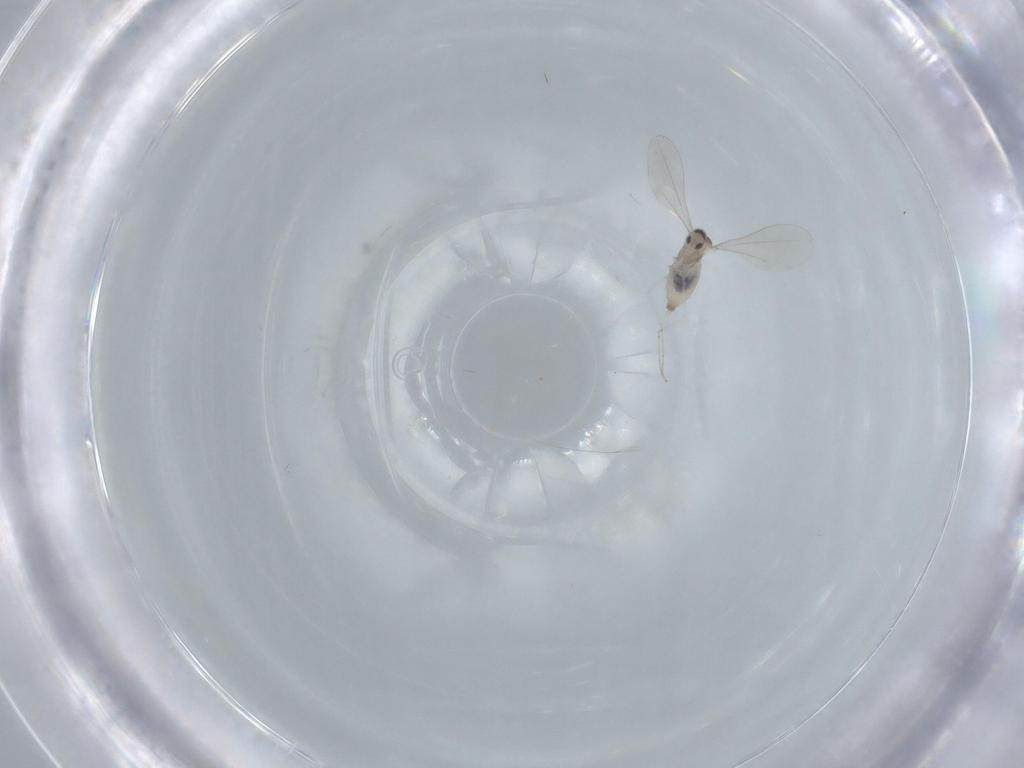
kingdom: Animalia
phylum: Arthropoda
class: Insecta
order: Diptera
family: Cecidomyiidae
